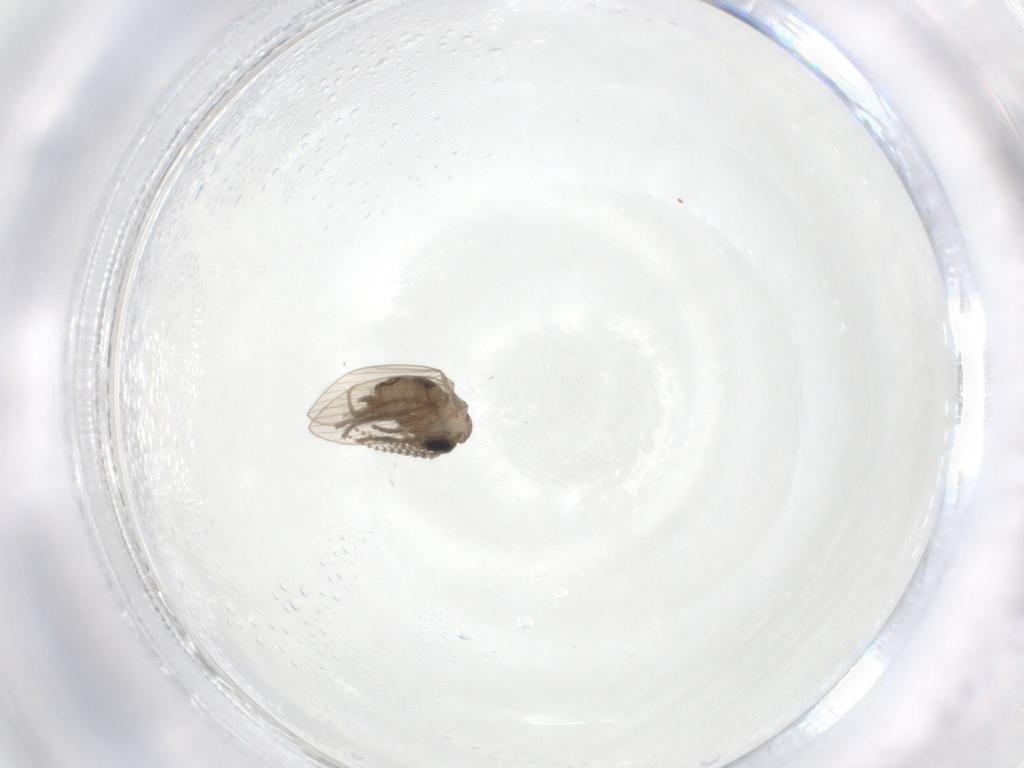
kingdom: Animalia
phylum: Arthropoda
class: Insecta
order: Diptera
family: Psychodidae
